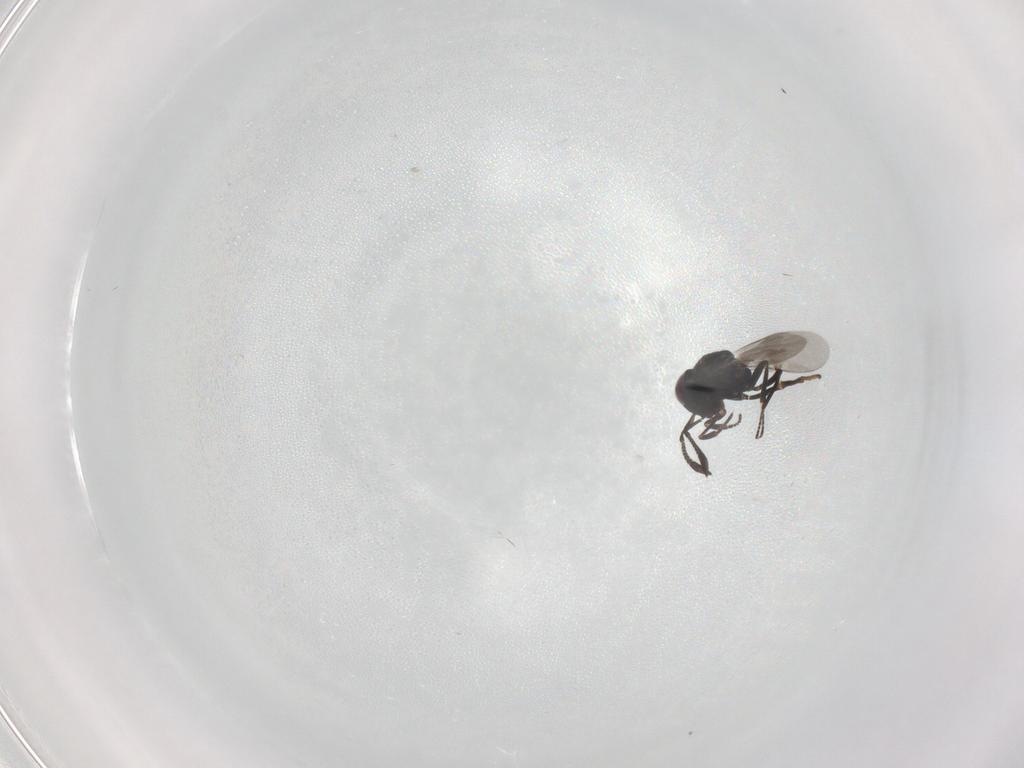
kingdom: Animalia
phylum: Arthropoda
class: Insecta
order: Hymenoptera
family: Encyrtidae
